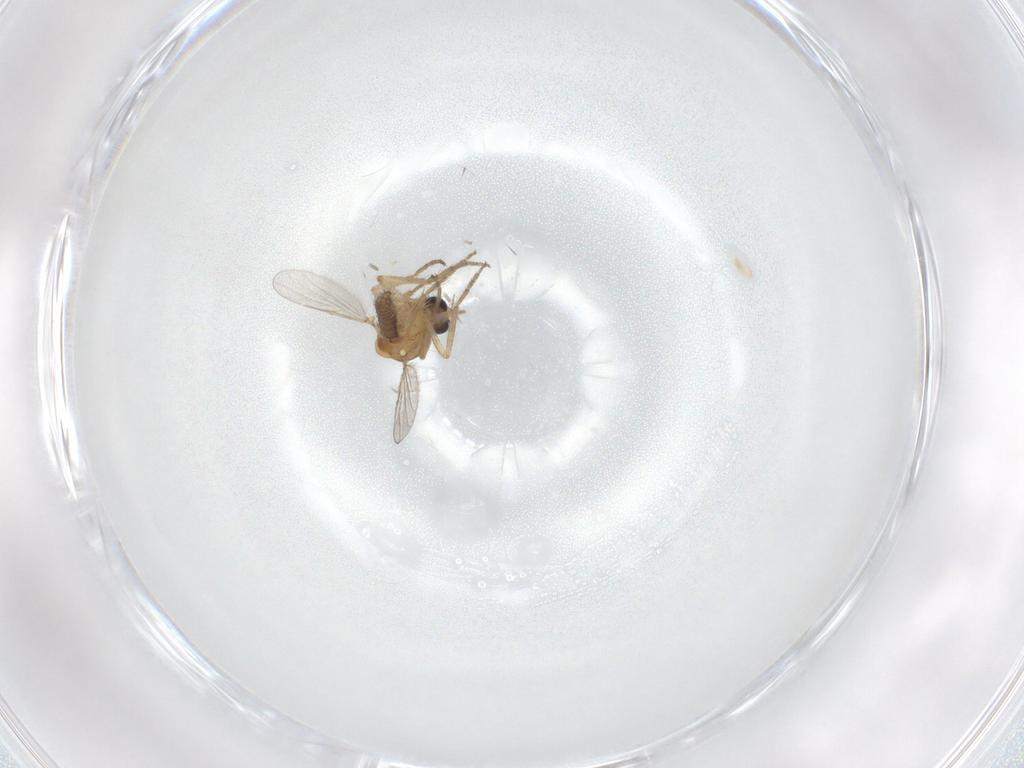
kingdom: Animalia
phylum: Arthropoda
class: Insecta
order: Diptera
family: Ceratopogonidae
